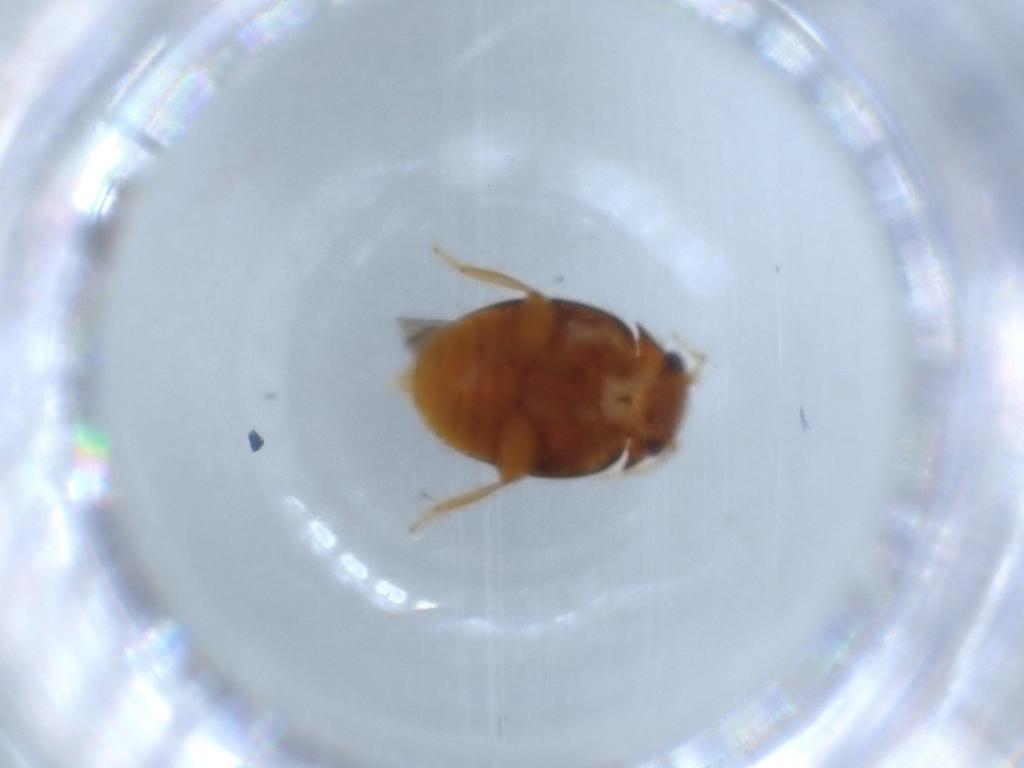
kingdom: Animalia
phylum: Arthropoda
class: Insecta
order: Coleoptera
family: Scirtidae
